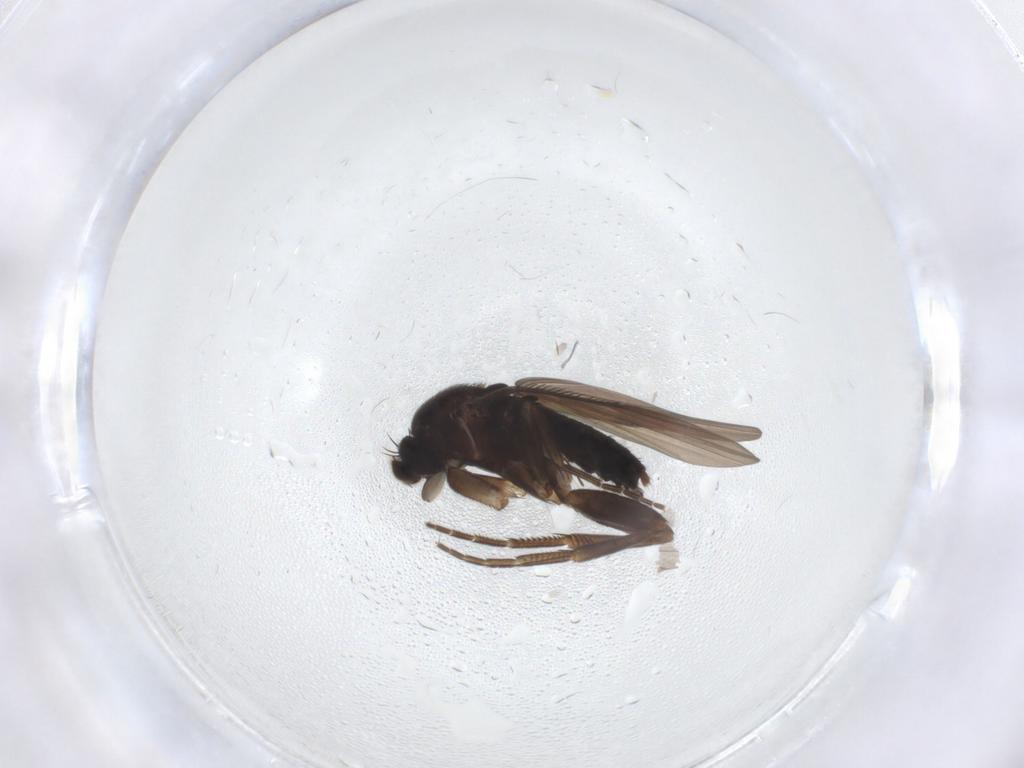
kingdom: Animalia
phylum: Arthropoda
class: Insecta
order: Diptera
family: Phoridae
